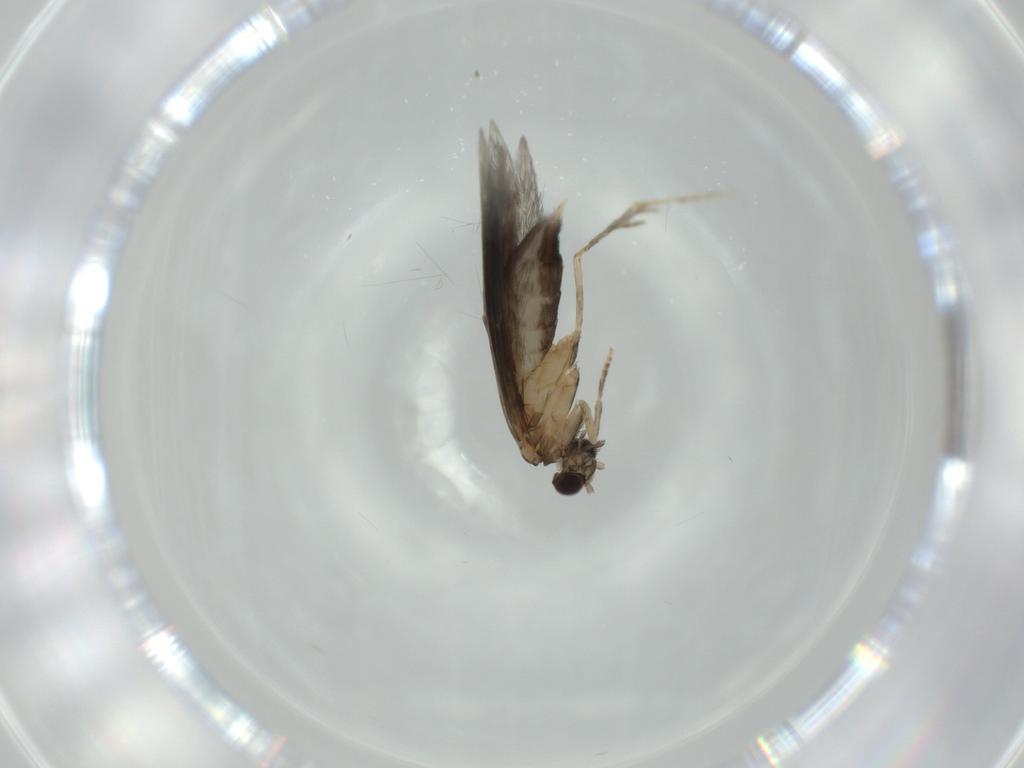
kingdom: Animalia
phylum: Arthropoda
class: Insecta
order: Trichoptera
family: Hydroptilidae
